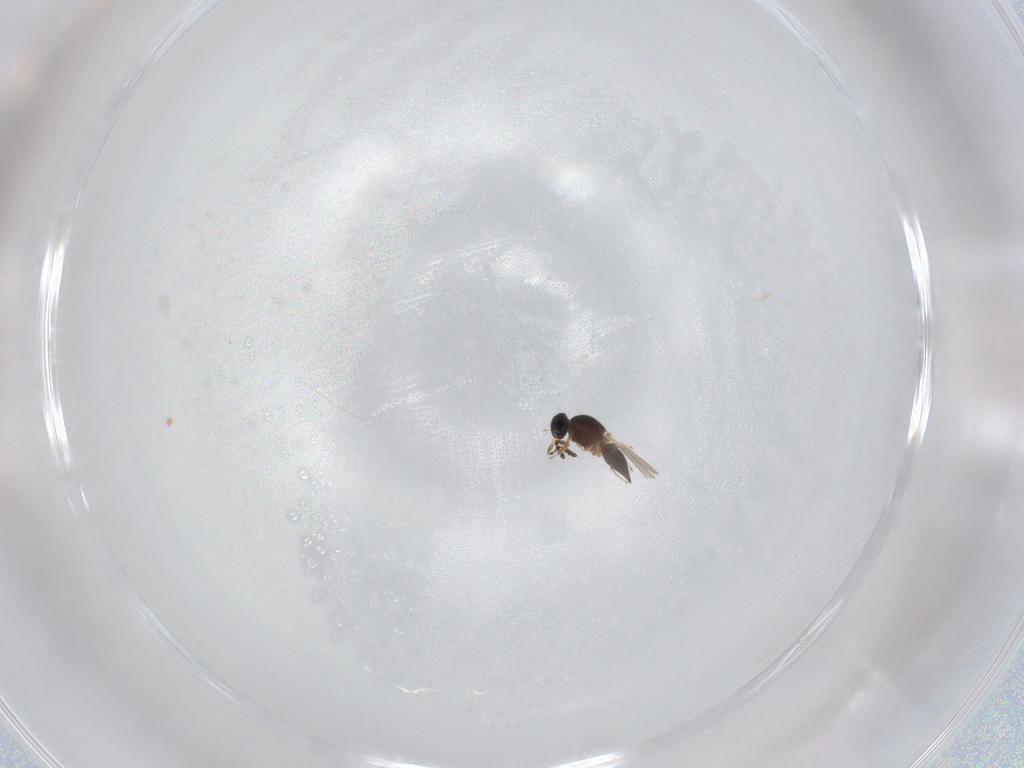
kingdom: Animalia
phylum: Arthropoda
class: Insecta
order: Hymenoptera
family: Platygastridae
